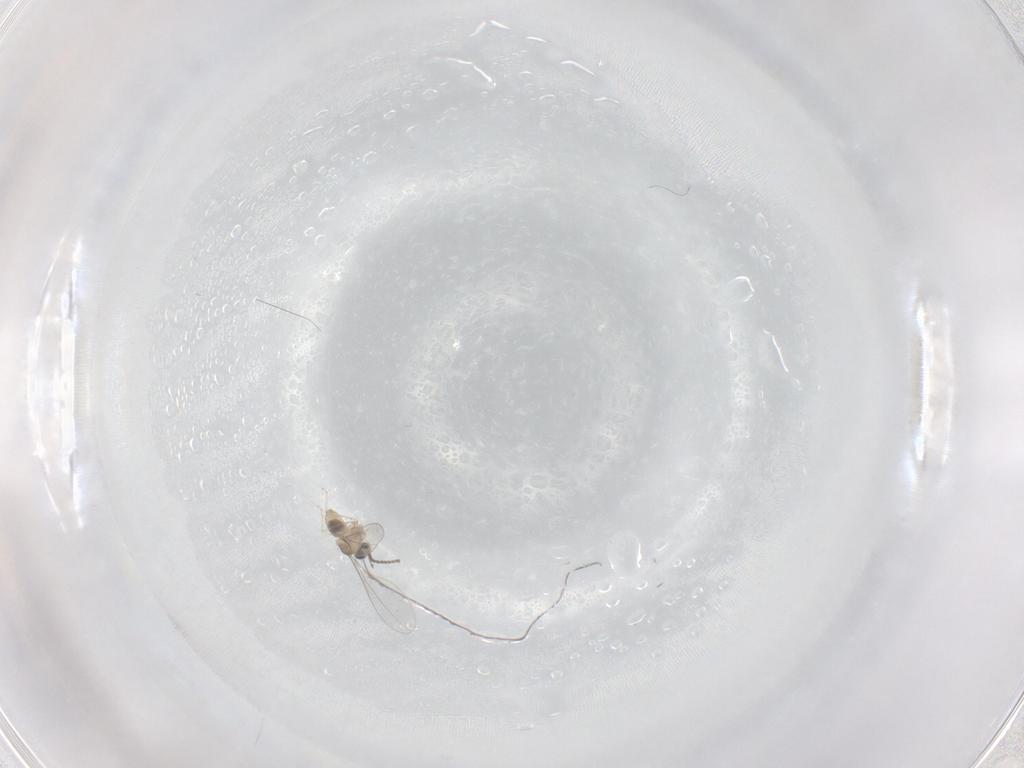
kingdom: Animalia
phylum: Arthropoda
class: Insecta
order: Diptera
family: Cecidomyiidae
